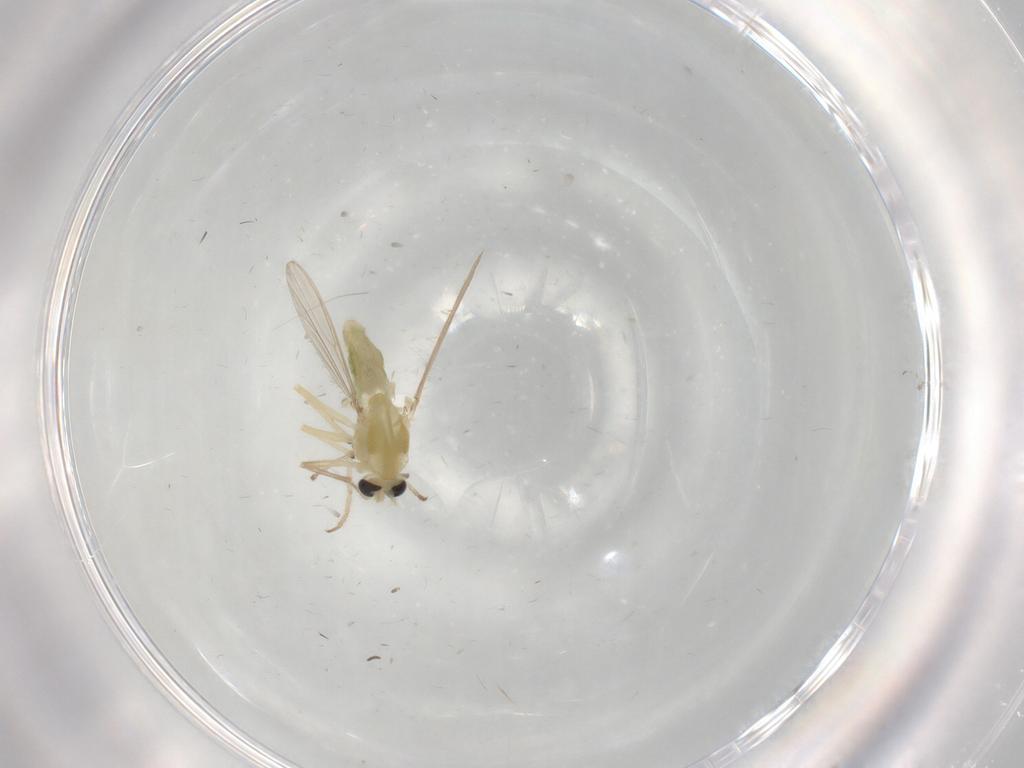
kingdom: Animalia
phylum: Arthropoda
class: Insecta
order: Diptera
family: Chironomidae
